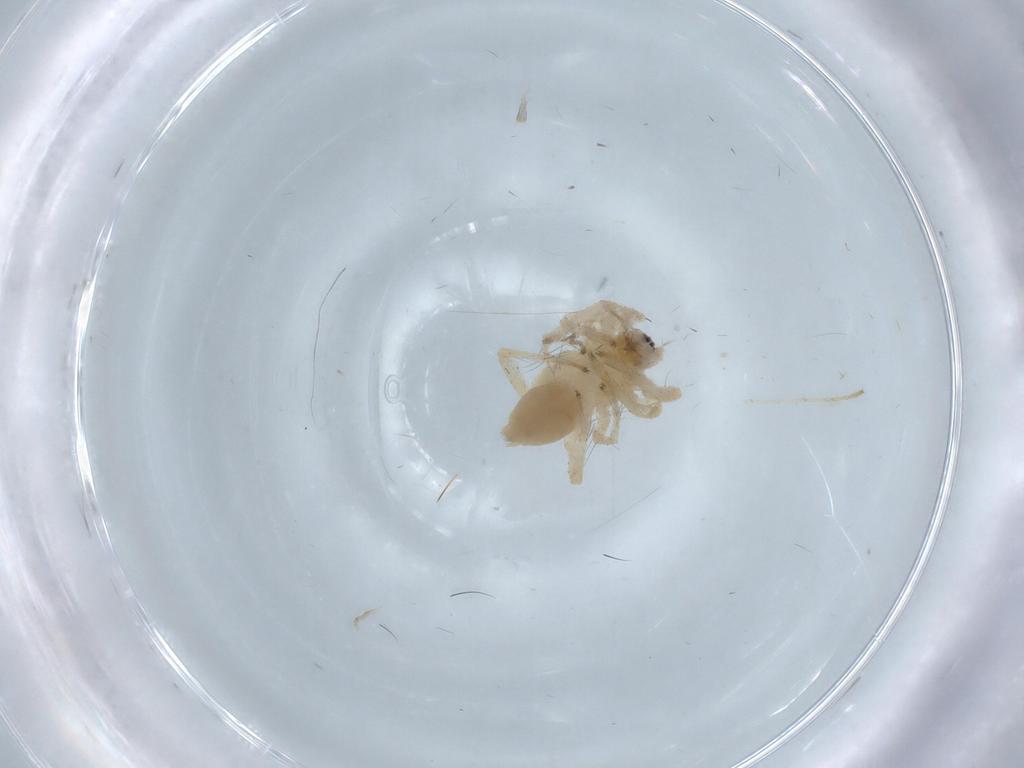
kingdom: Animalia
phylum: Arthropoda
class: Arachnida
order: Araneae
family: Anyphaenidae
